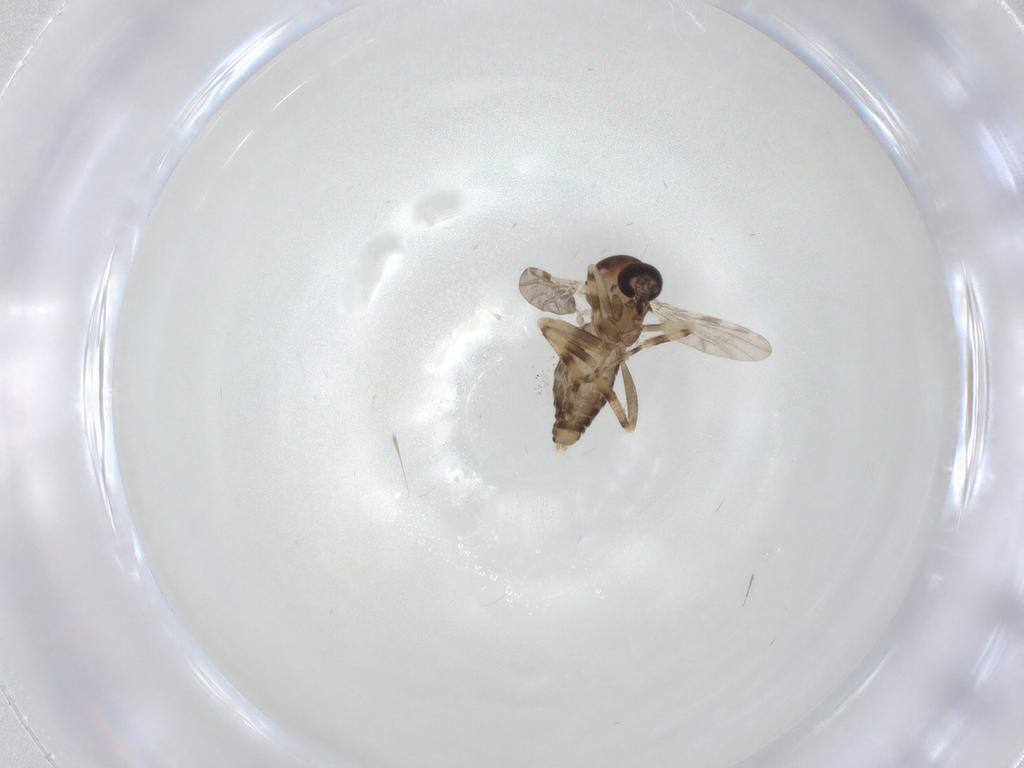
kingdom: Animalia
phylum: Arthropoda
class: Insecta
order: Diptera
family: Ceratopogonidae
